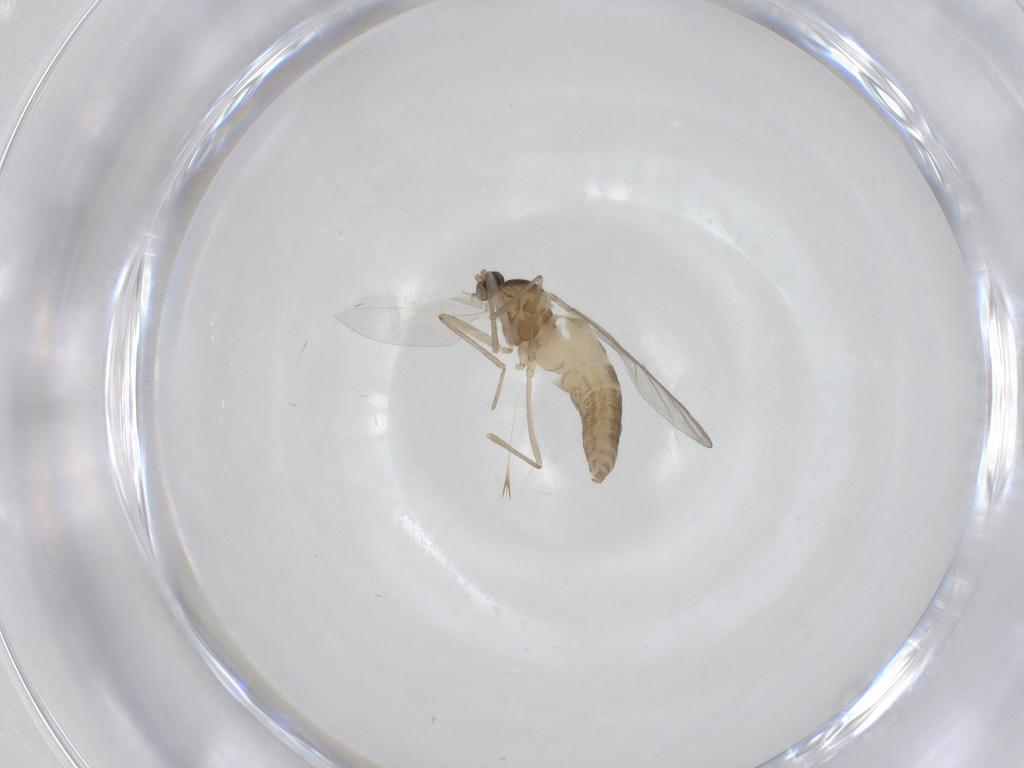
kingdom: Animalia
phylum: Arthropoda
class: Insecta
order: Diptera
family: Cecidomyiidae
